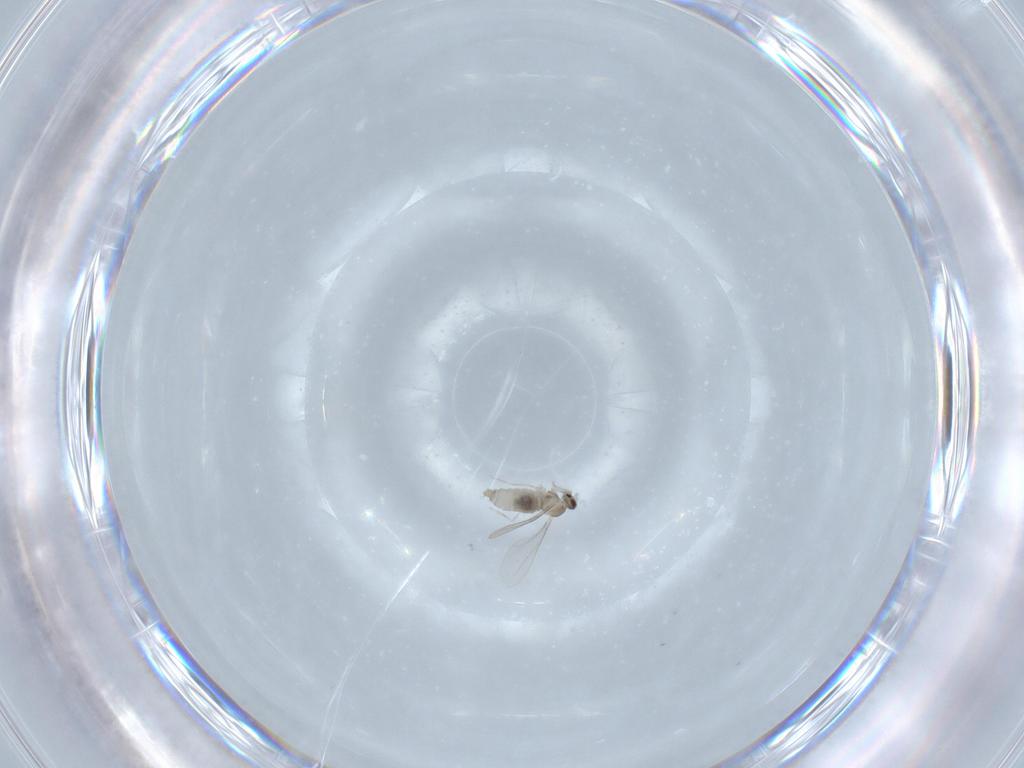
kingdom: Animalia
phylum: Arthropoda
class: Insecta
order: Diptera
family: Cecidomyiidae
